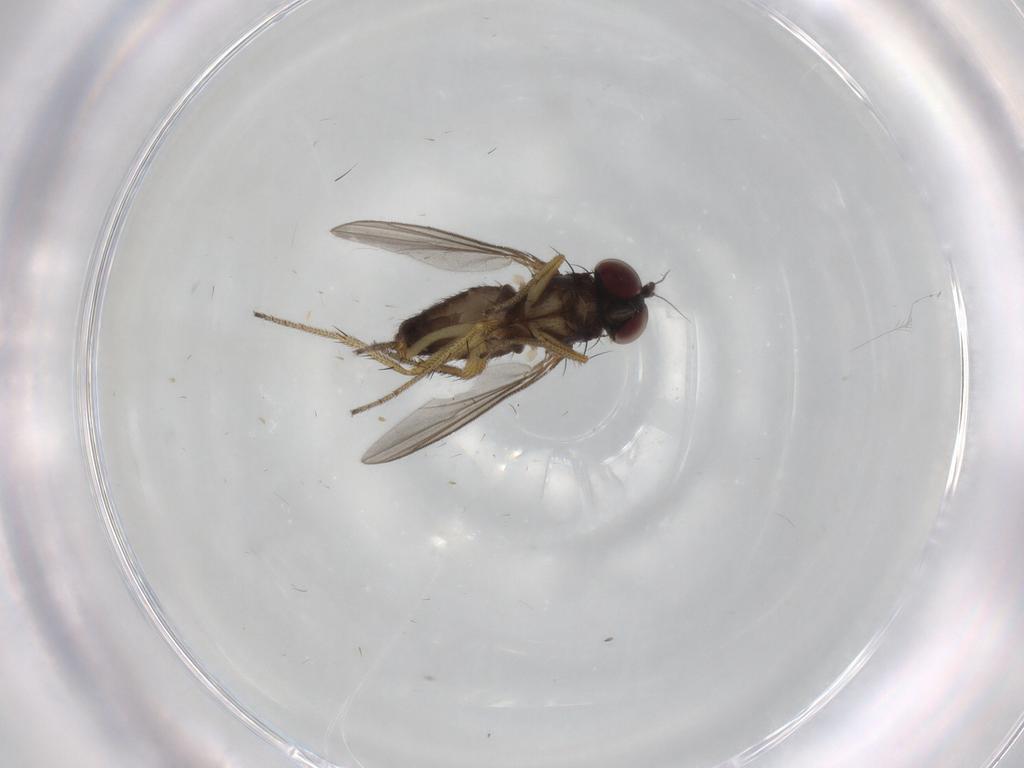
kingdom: Animalia
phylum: Arthropoda
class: Insecta
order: Diptera
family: Dolichopodidae
